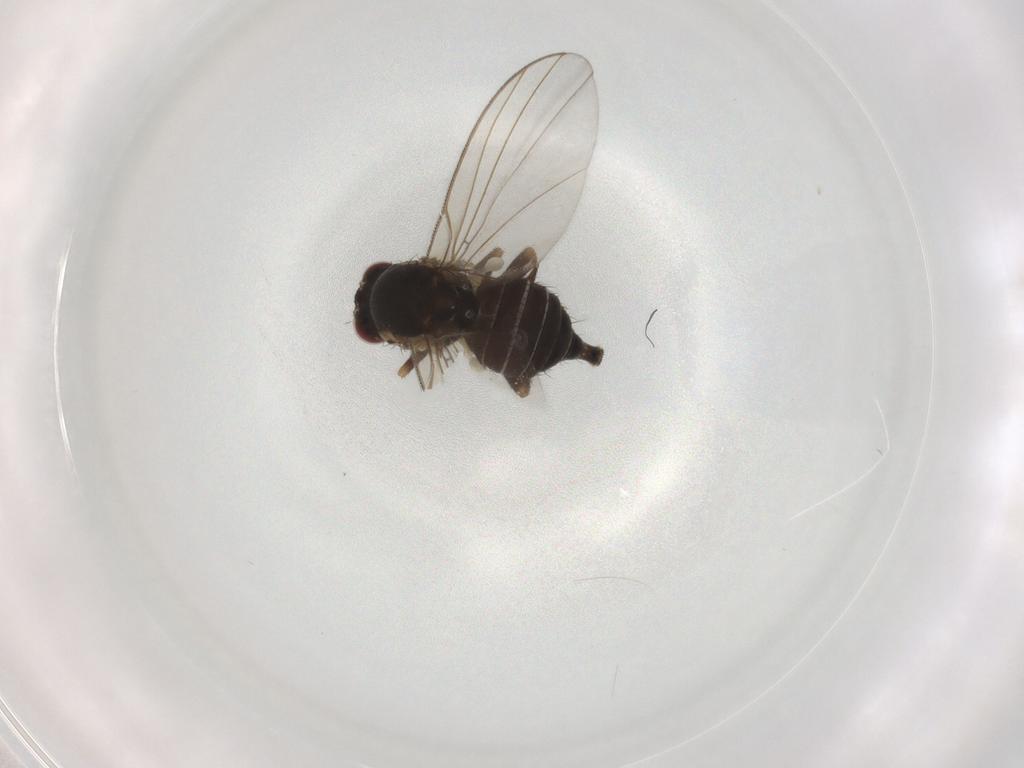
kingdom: Animalia
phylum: Arthropoda
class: Insecta
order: Diptera
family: Agromyzidae
